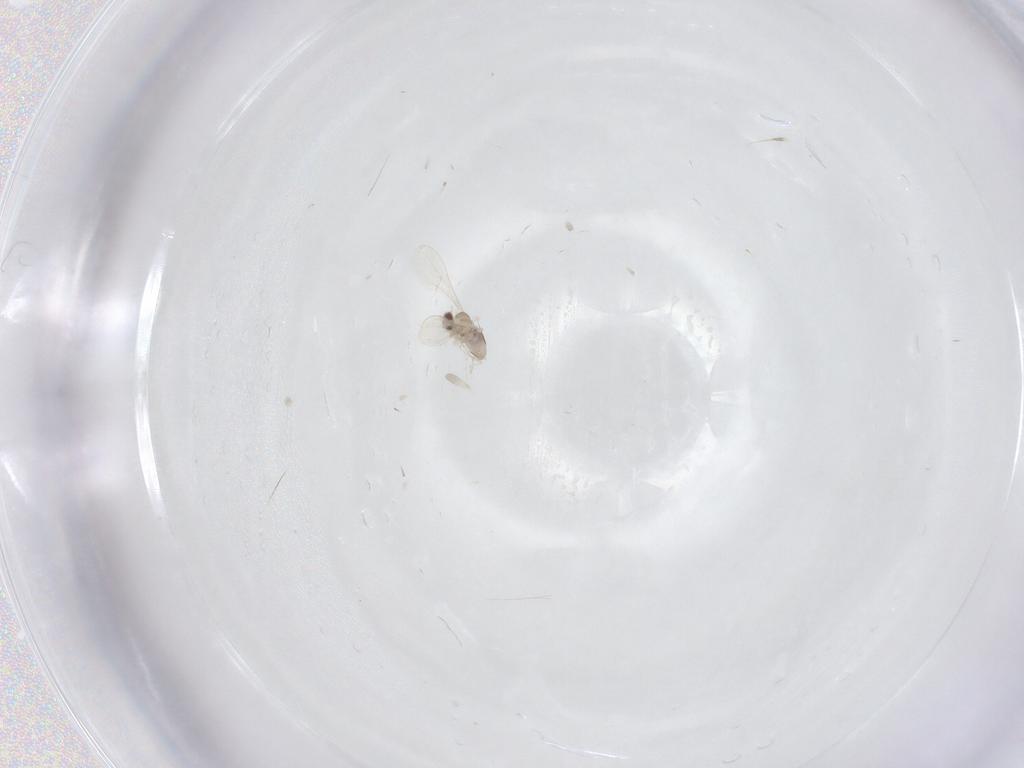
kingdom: Animalia
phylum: Arthropoda
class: Insecta
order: Diptera
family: Cecidomyiidae
